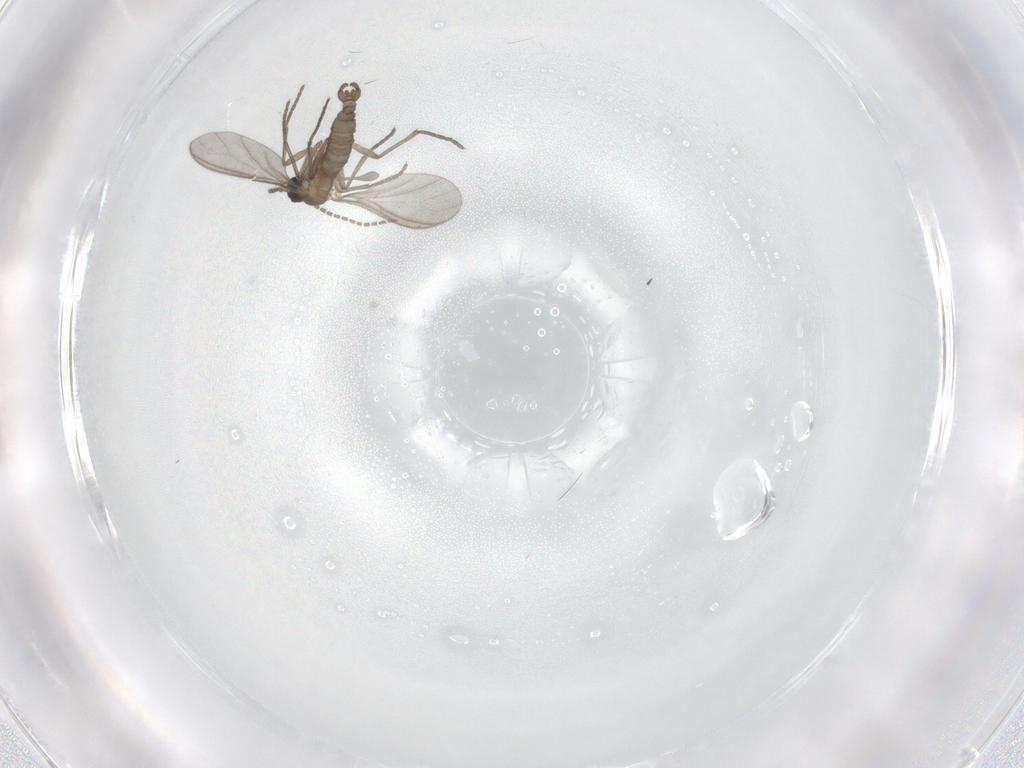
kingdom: Animalia
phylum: Arthropoda
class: Insecta
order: Diptera
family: Sciaridae
